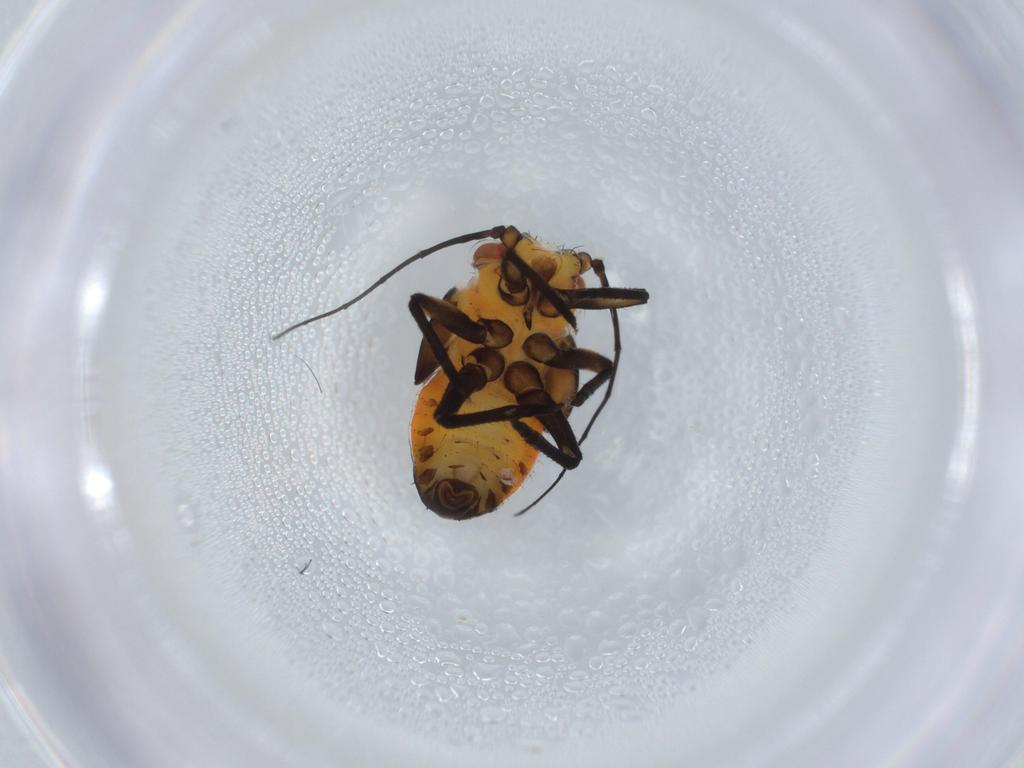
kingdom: Animalia
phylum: Arthropoda
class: Insecta
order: Hemiptera
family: Psyllidae
